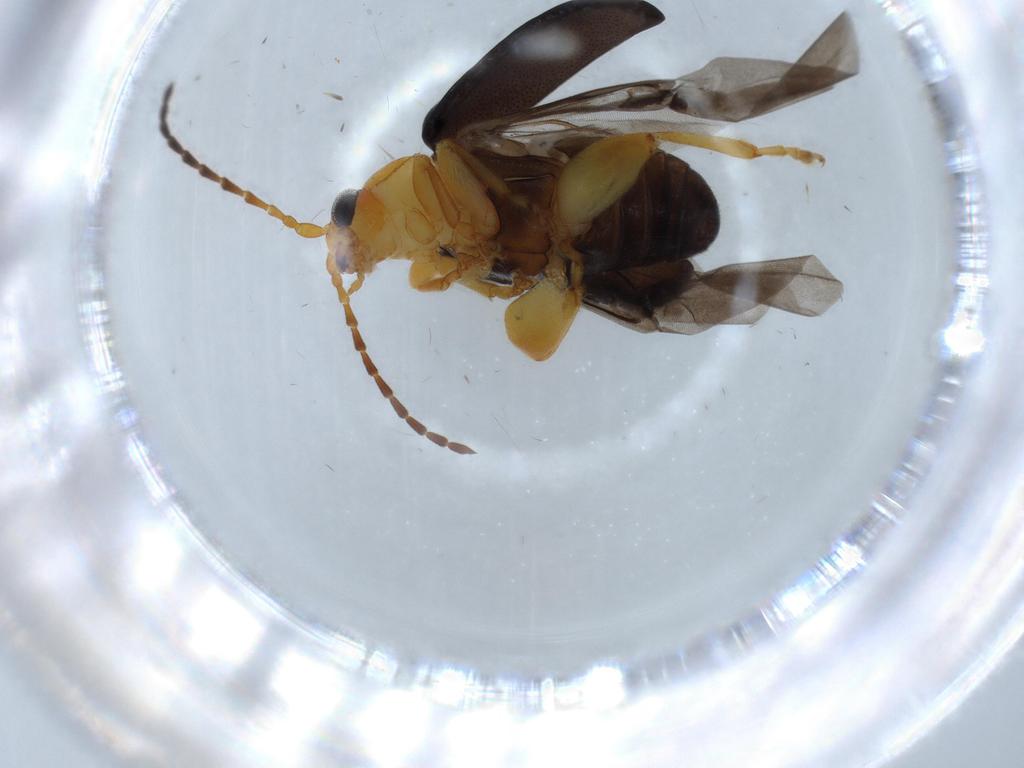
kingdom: Animalia
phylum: Arthropoda
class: Insecta
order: Coleoptera
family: Chrysomelidae
